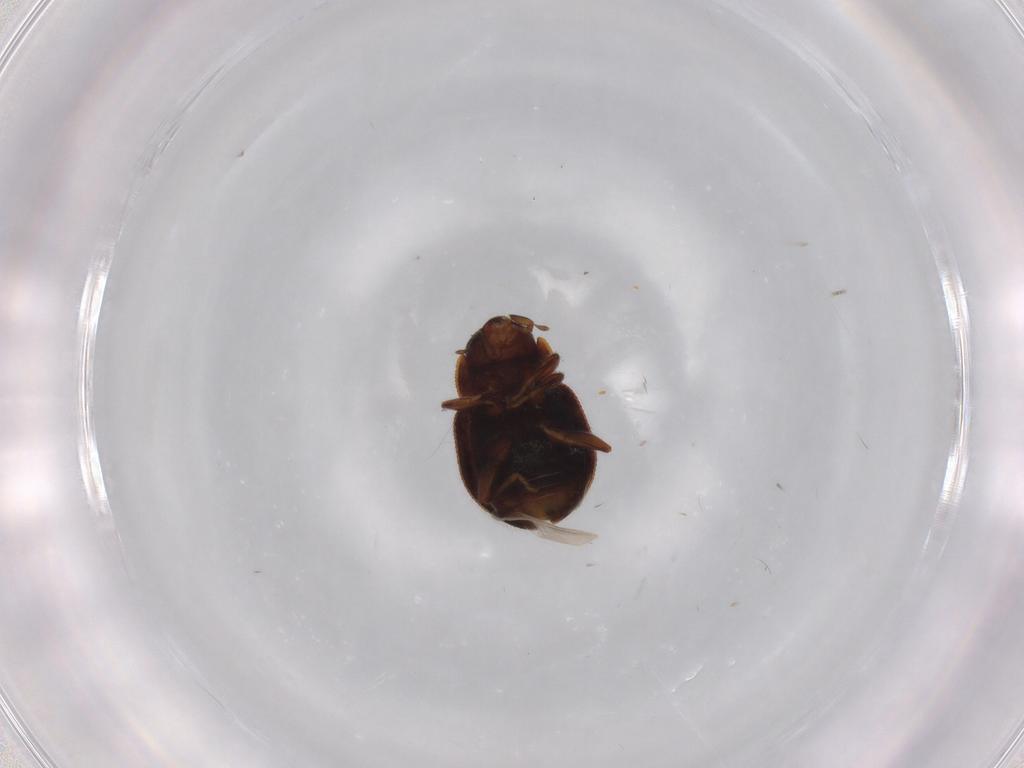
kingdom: Animalia
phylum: Arthropoda
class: Insecta
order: Coleoptera
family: Coccinellidae
